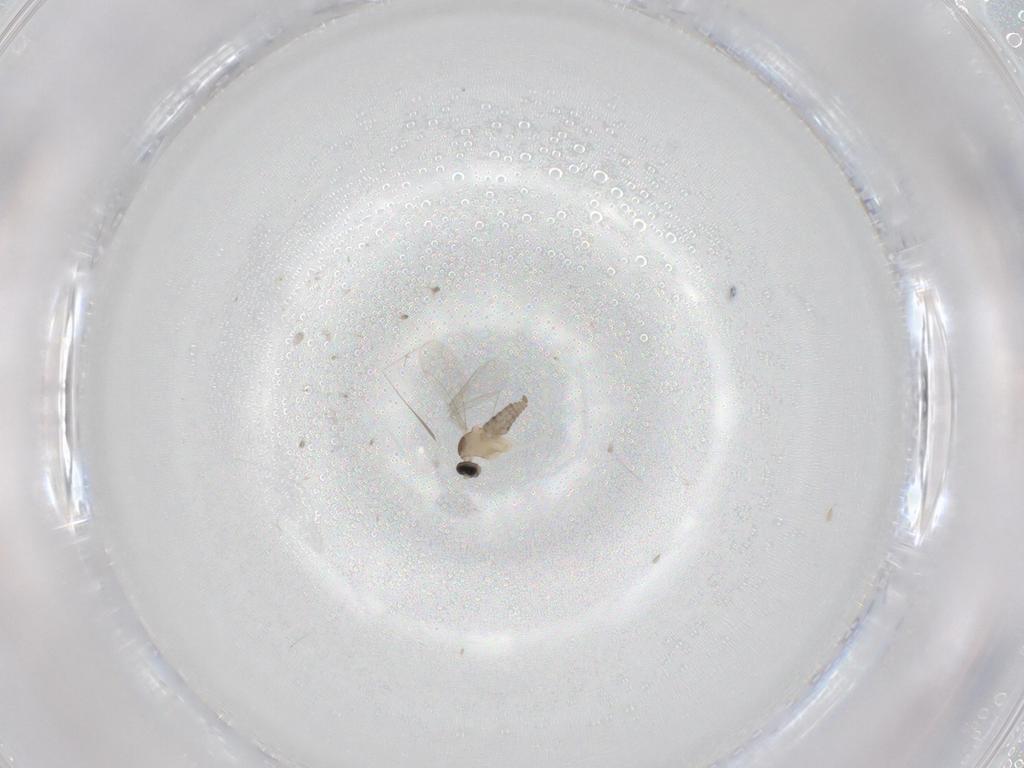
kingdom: Animalia
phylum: Arthropoda
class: Insecta
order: Diptera
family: Cecidomyiidae
